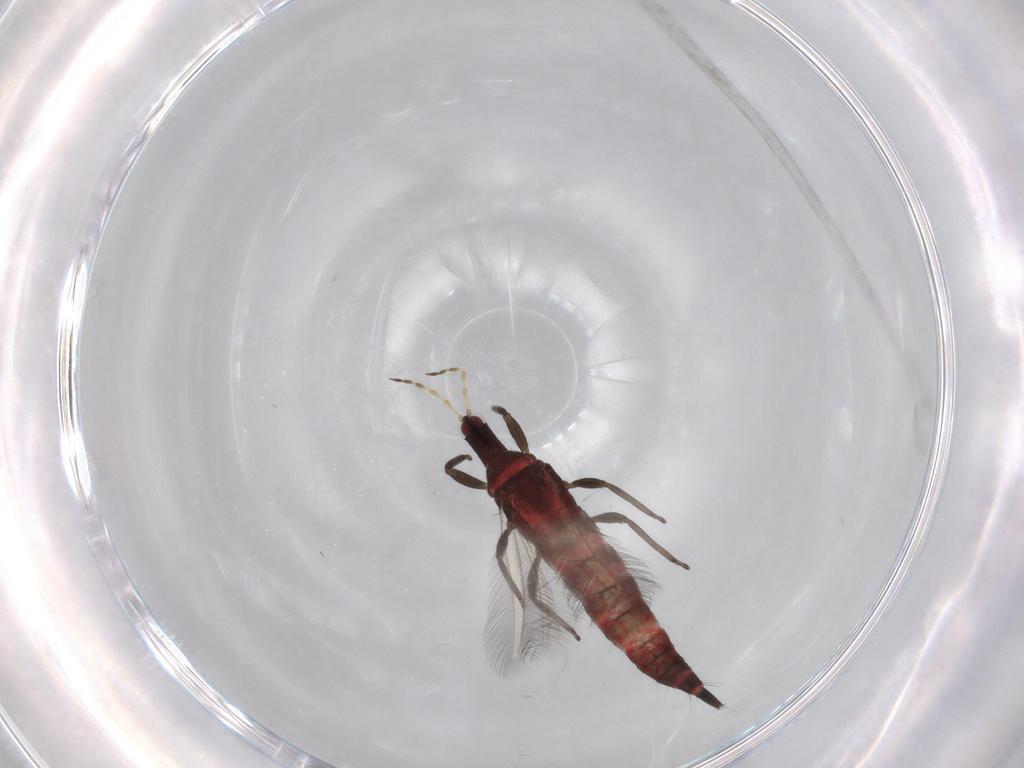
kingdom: Animalia
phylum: Arthropoda
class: Insecta
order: Thysanoptera
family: Phlaeothripidae
